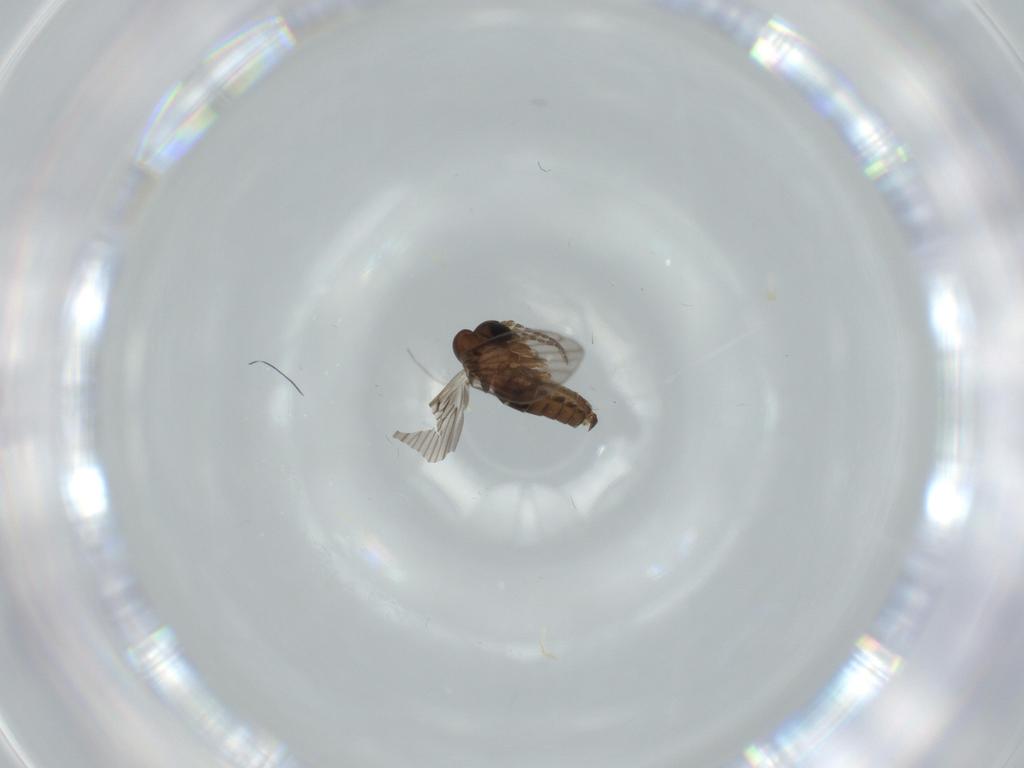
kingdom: Animalia
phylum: Arthropoda
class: Insecta
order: Diptera
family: Psychodidae
